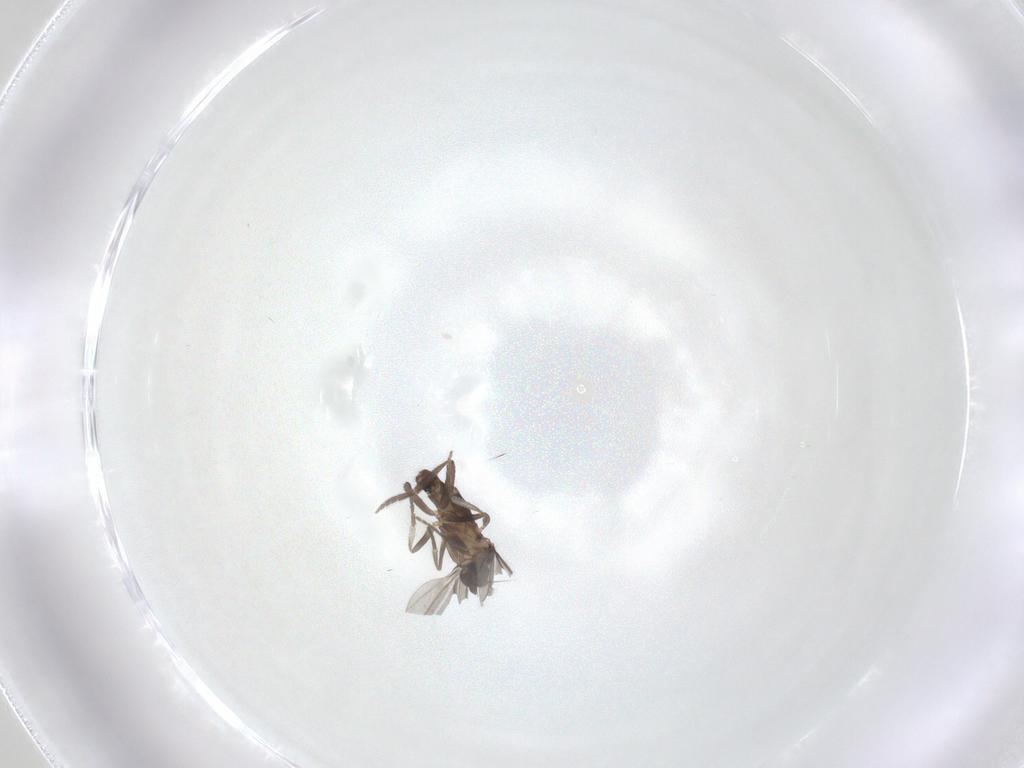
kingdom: Animalia
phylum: Arthropoda
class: Insecta
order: Diptera
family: Phoridae
